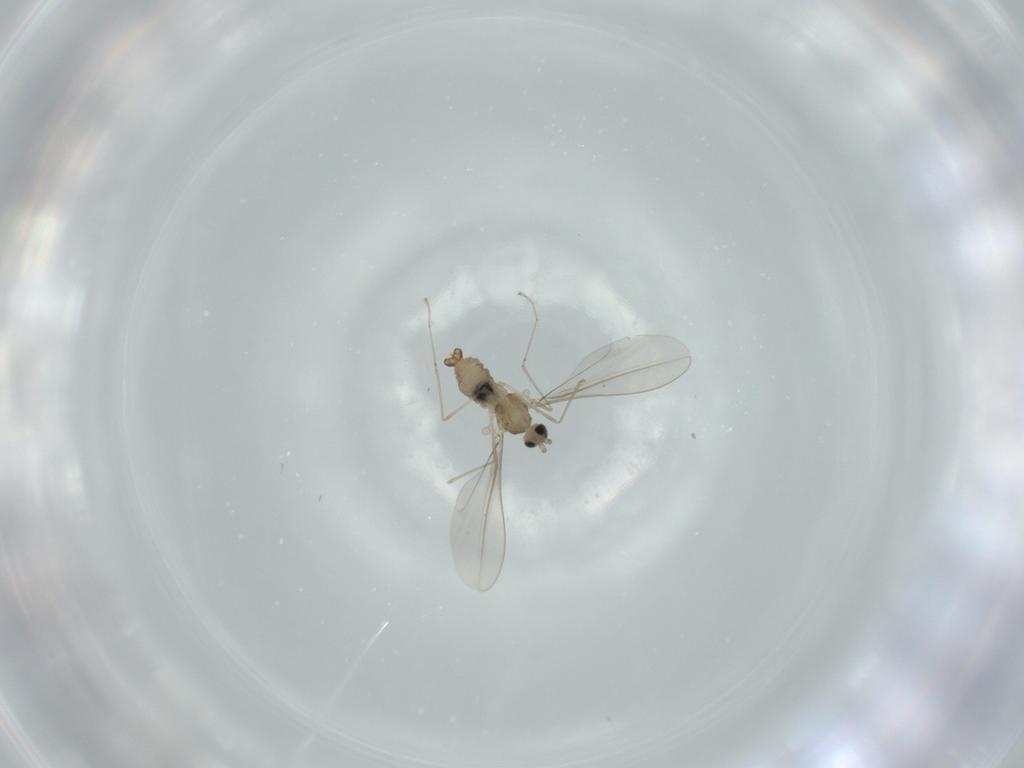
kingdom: Animalia
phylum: Arthropoda
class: Insecta
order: Diptera
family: Cecidomyiidae
